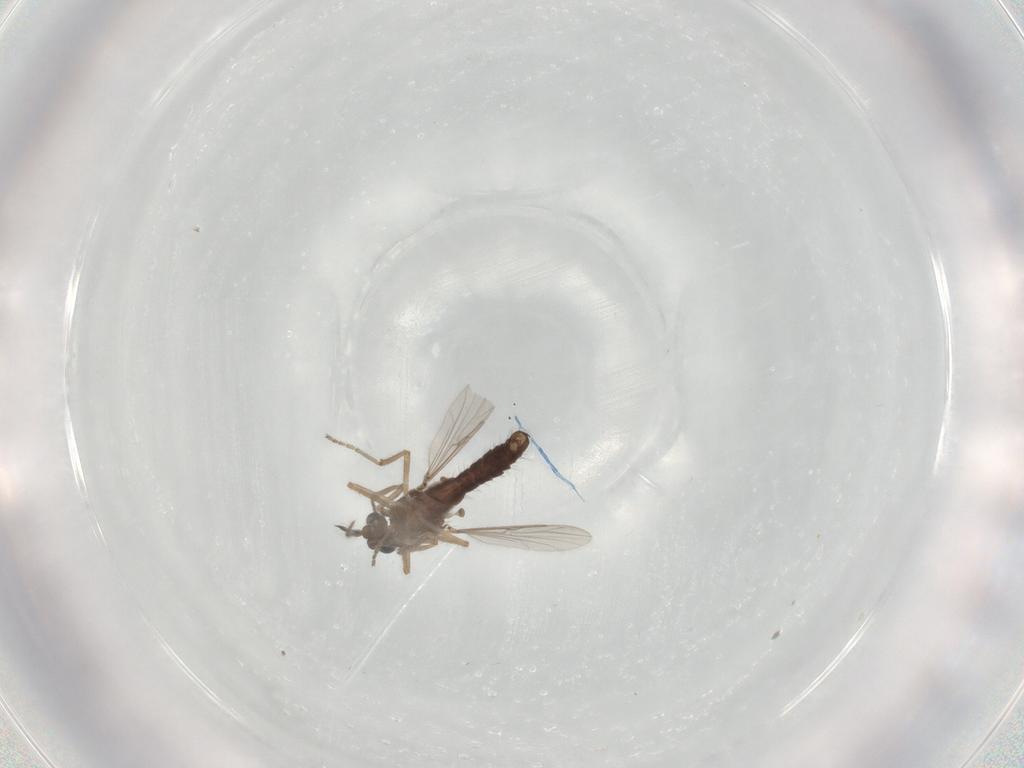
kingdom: Animalia
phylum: Arthropoda
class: Insecta
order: Diptera
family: Ceratopogonidae
